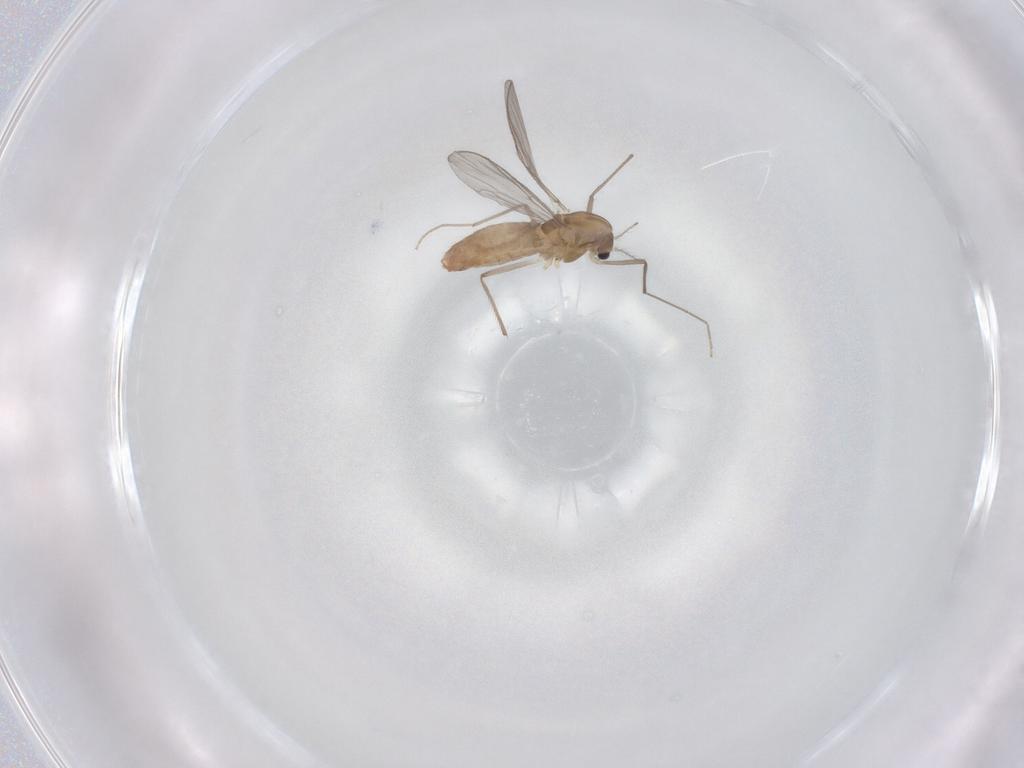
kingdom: Animalia
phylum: Arthropoda
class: Insecta
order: Diptera
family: Chironomidae
